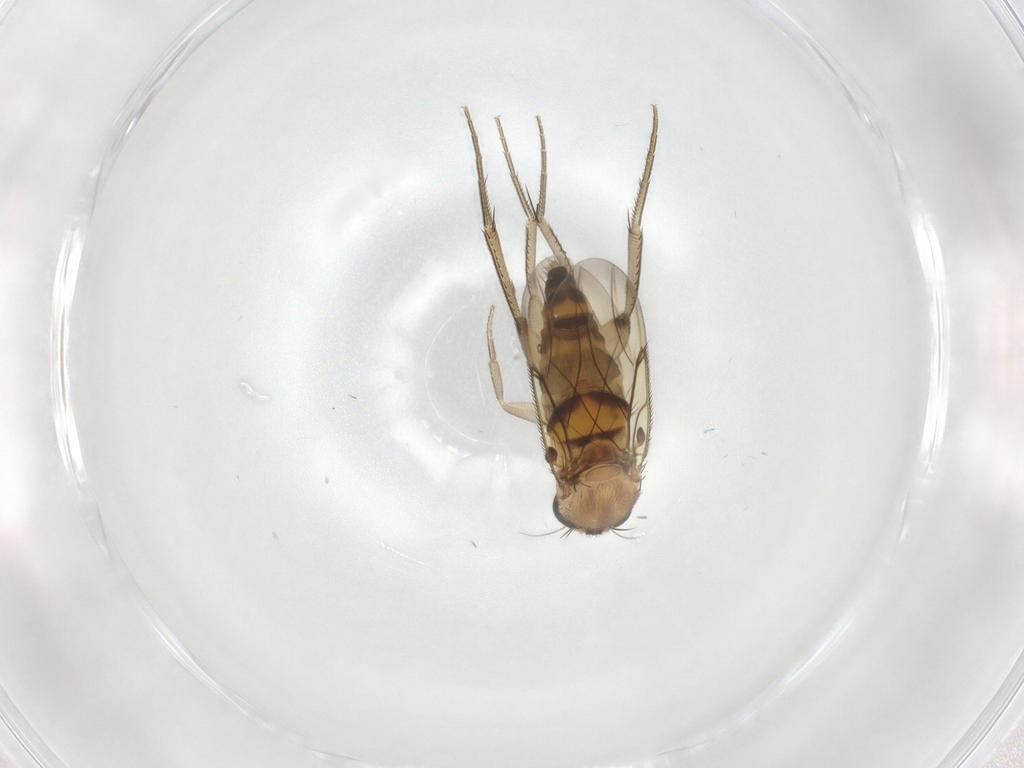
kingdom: Animalia
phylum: Arthropoda
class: Insecta
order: Diptera
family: Phoridae
